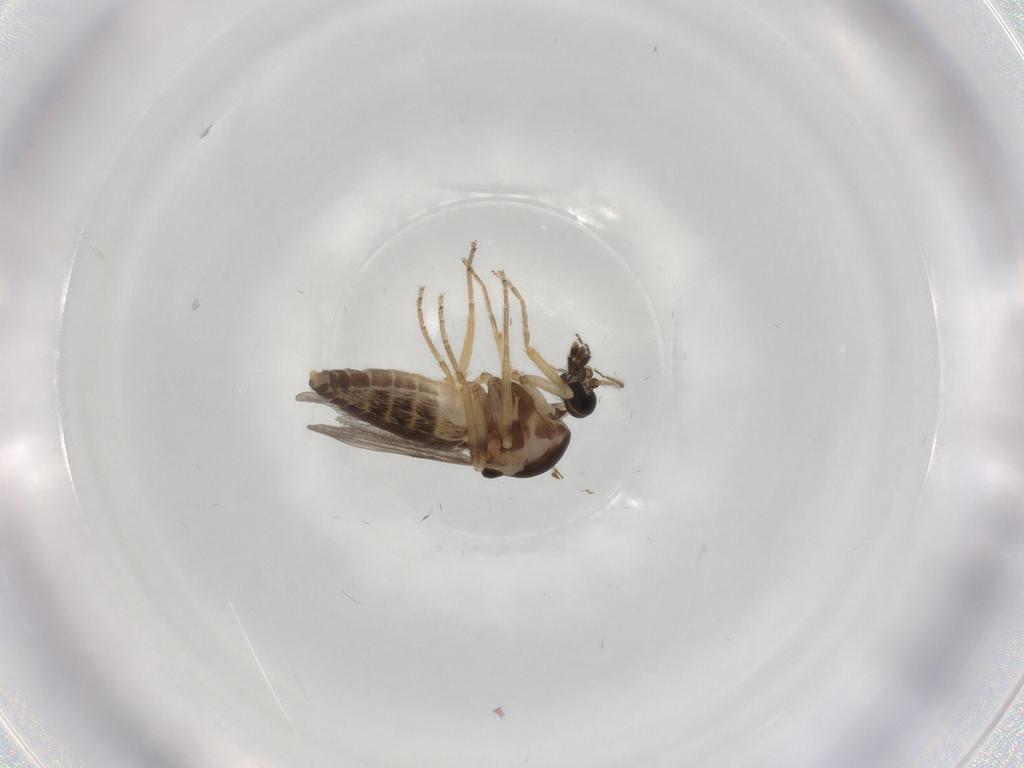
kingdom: Animalia
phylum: Arthropoda
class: Insecta
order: Diptera
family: Ceratopogonidae
